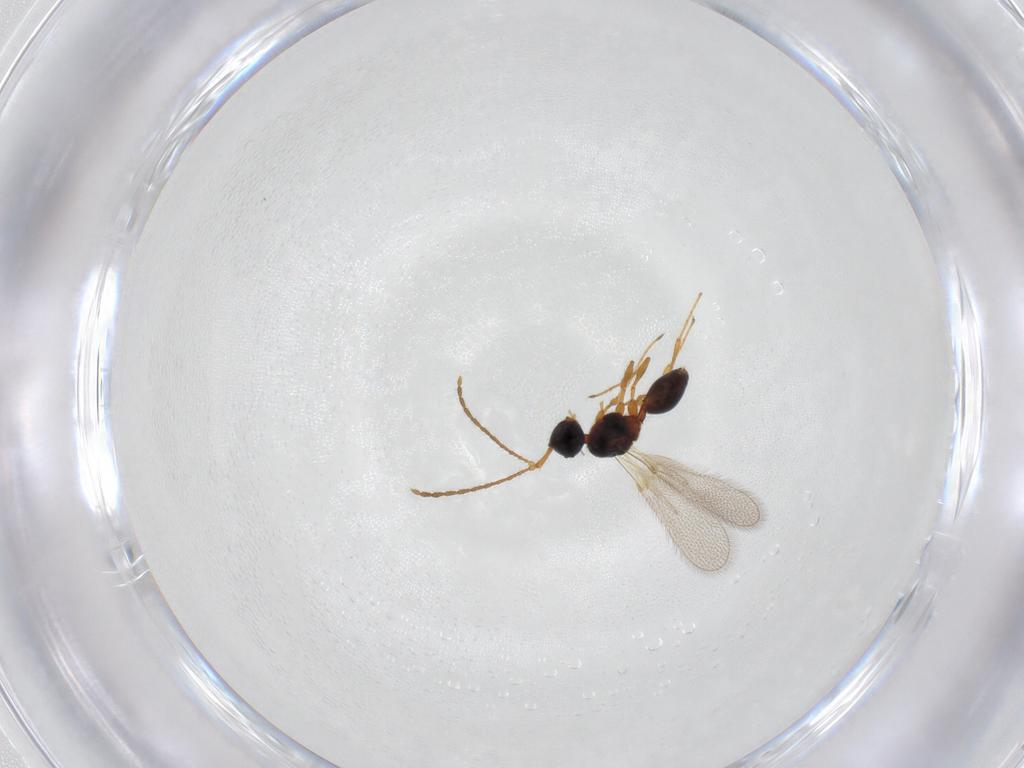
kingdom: Animalia
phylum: Arthropoda
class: Insecta
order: Hymenoptera
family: Diapriidae
